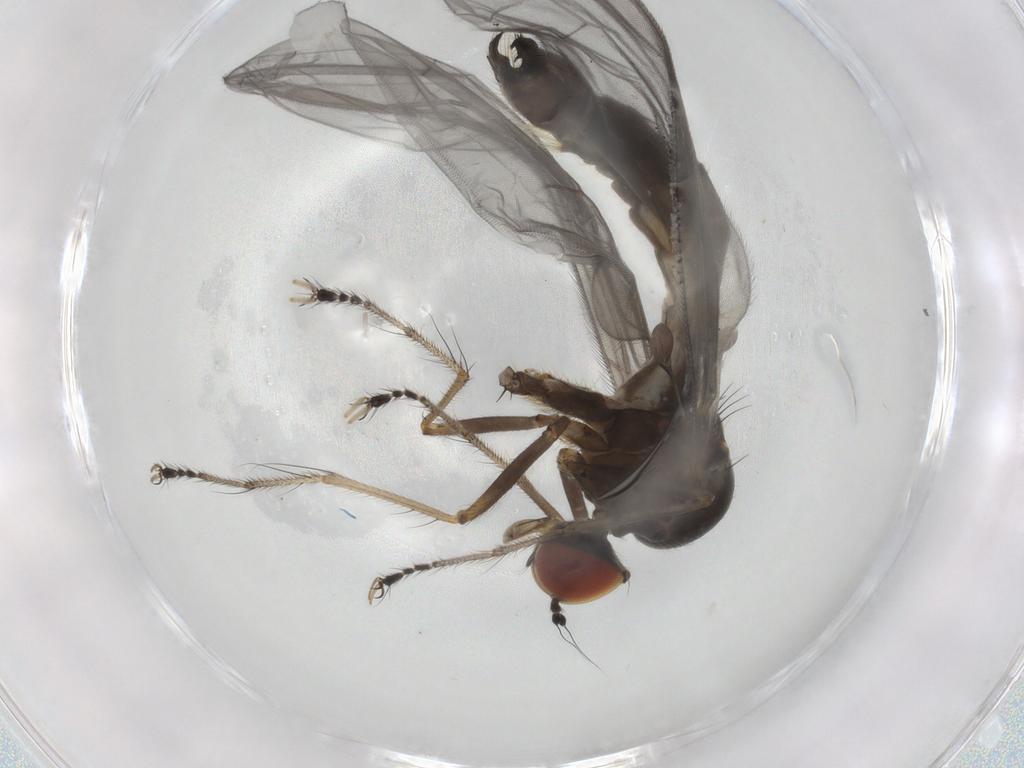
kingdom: Animalia
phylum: Arthropoda
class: Insecta
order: Diptera
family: Hybotidae
